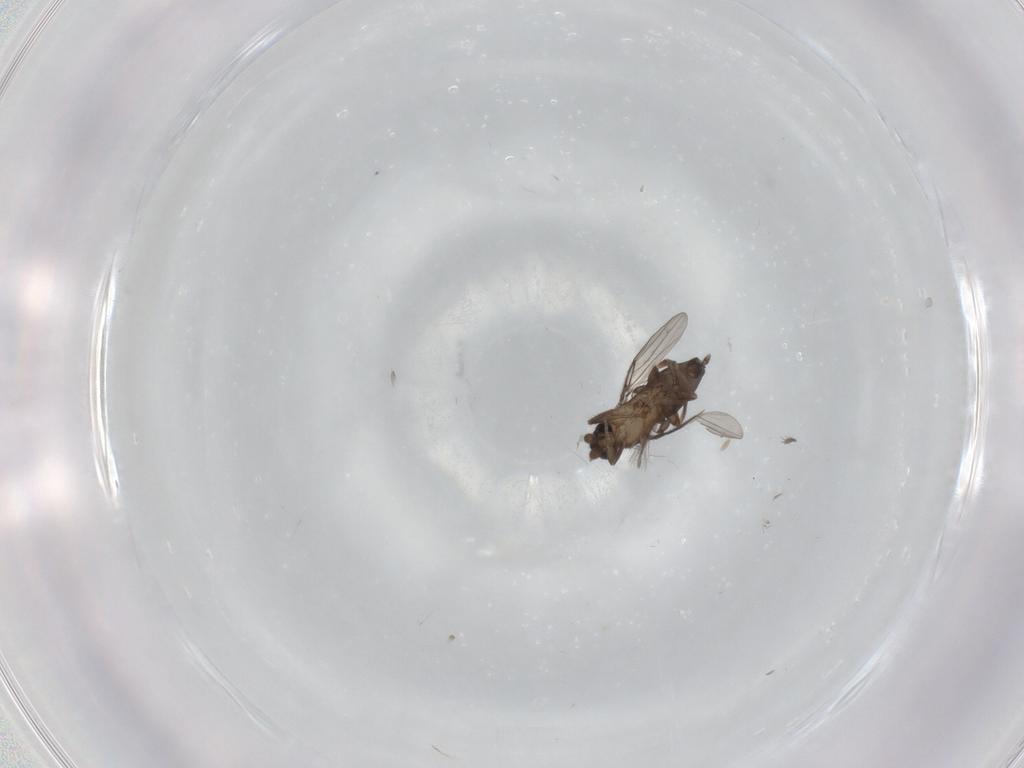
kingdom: Animalia
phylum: Arthropoda
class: Insecta
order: Diptera
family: Phoridae
